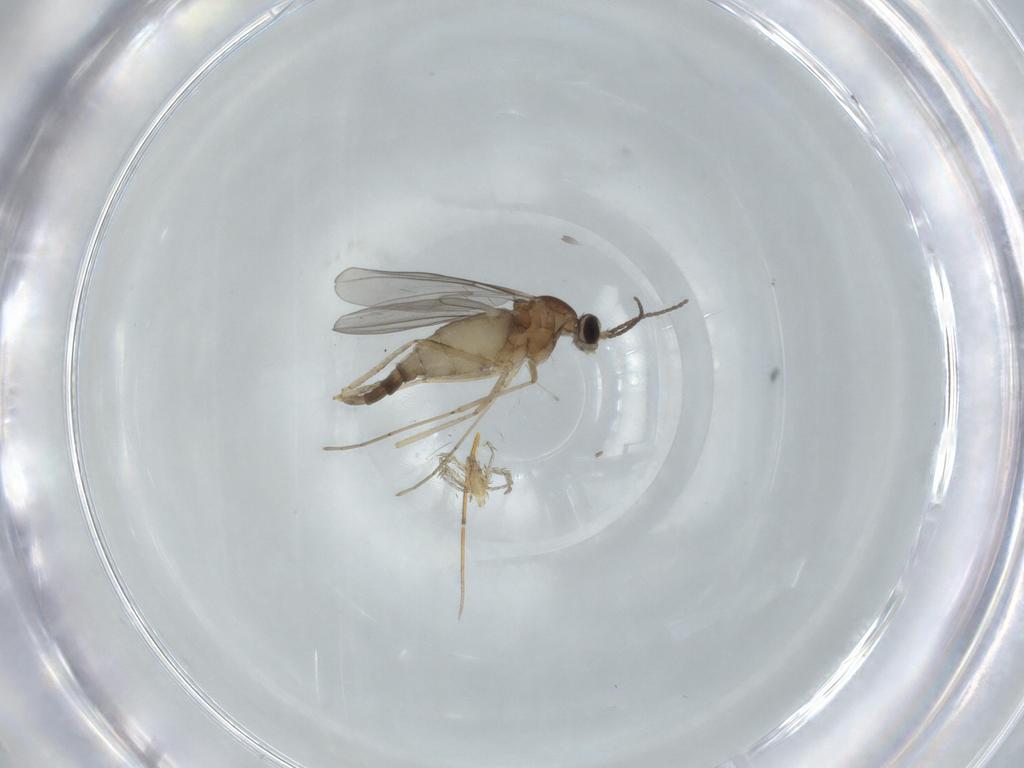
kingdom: Animalia
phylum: Arthropoda
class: Insecta
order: Diptera
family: Cecidomyiidae
